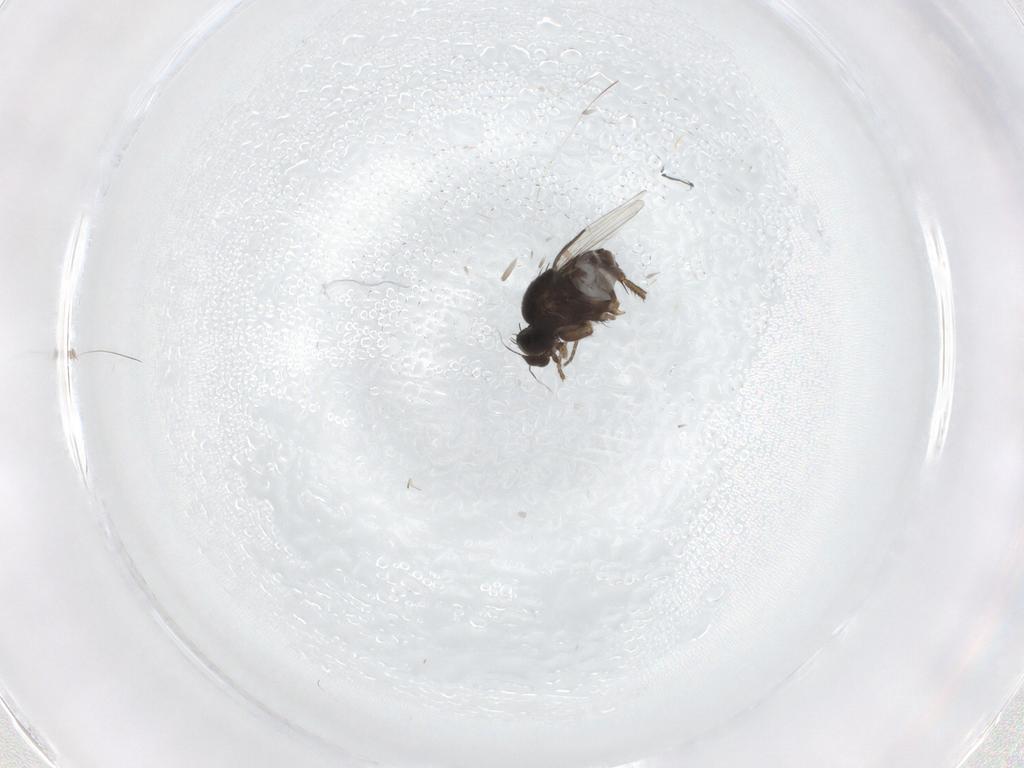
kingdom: Animalia
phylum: Arthropoda
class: Insecta
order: Diptera
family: Phoridae
